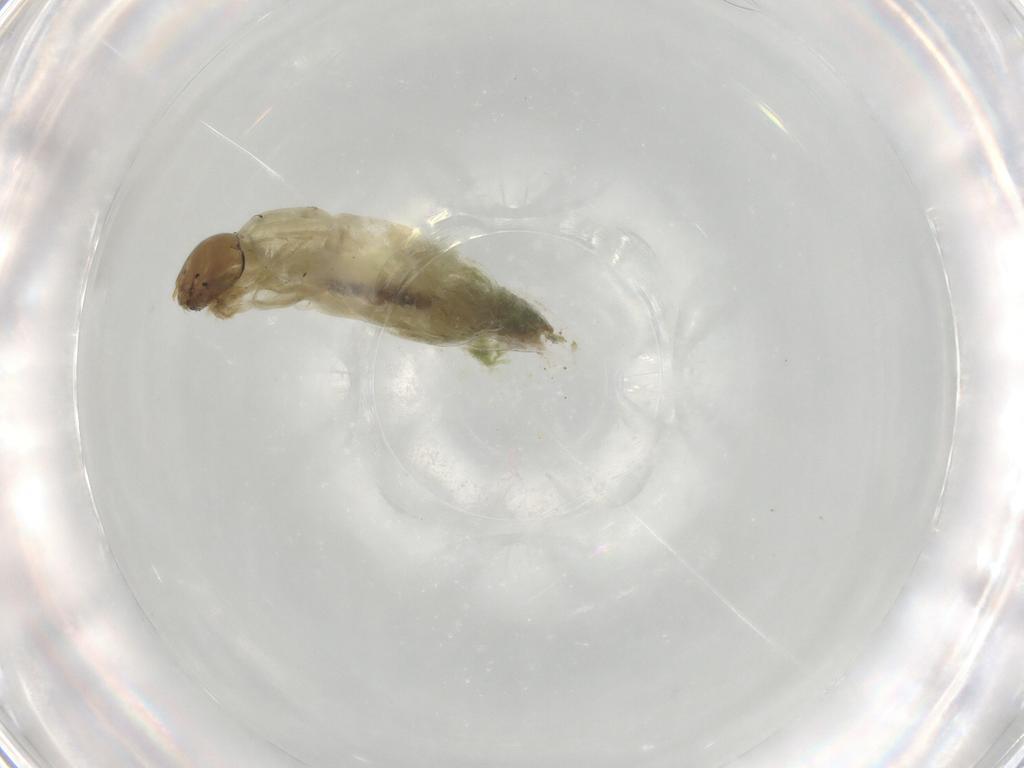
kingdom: Animalia
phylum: Arthropoda
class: Insecta
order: Diptera
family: Chironomidae
